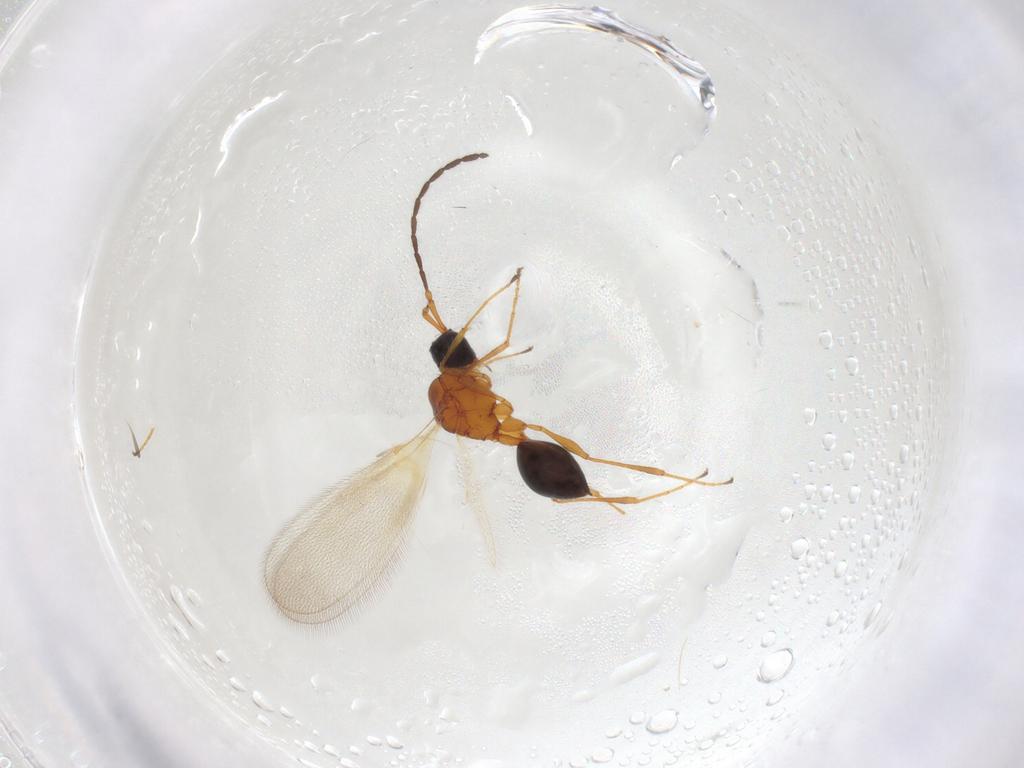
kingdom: Animalia
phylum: Arthropoda
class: Insecta
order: Hymenoptera
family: Diapriidae
